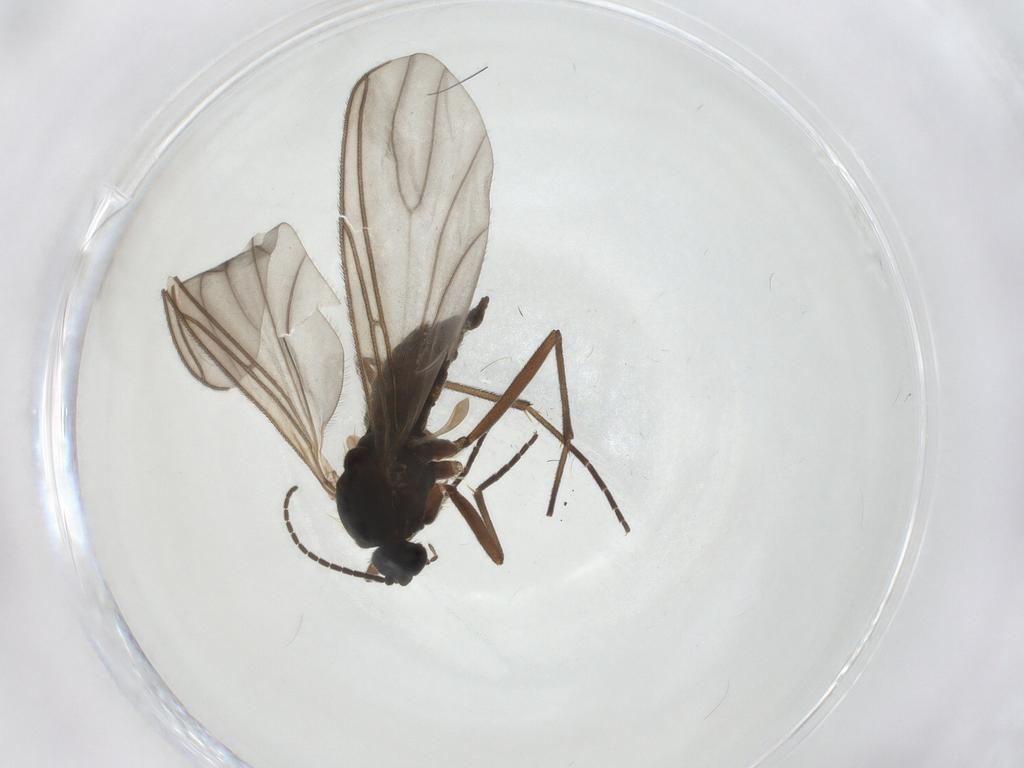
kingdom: Animalia
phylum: Arthropoda
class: Insecta
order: Diptera
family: Sciaridae
